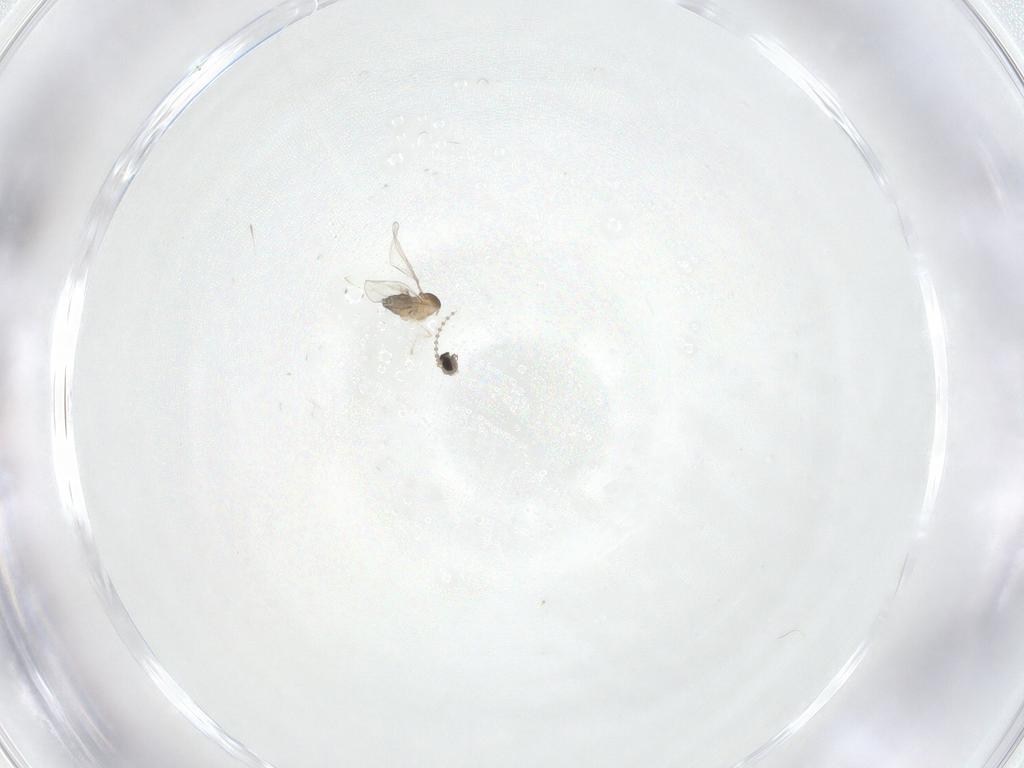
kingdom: Animalia
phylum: Arthropoda
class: Insecta
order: Diptera
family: Cecidomyiidae
